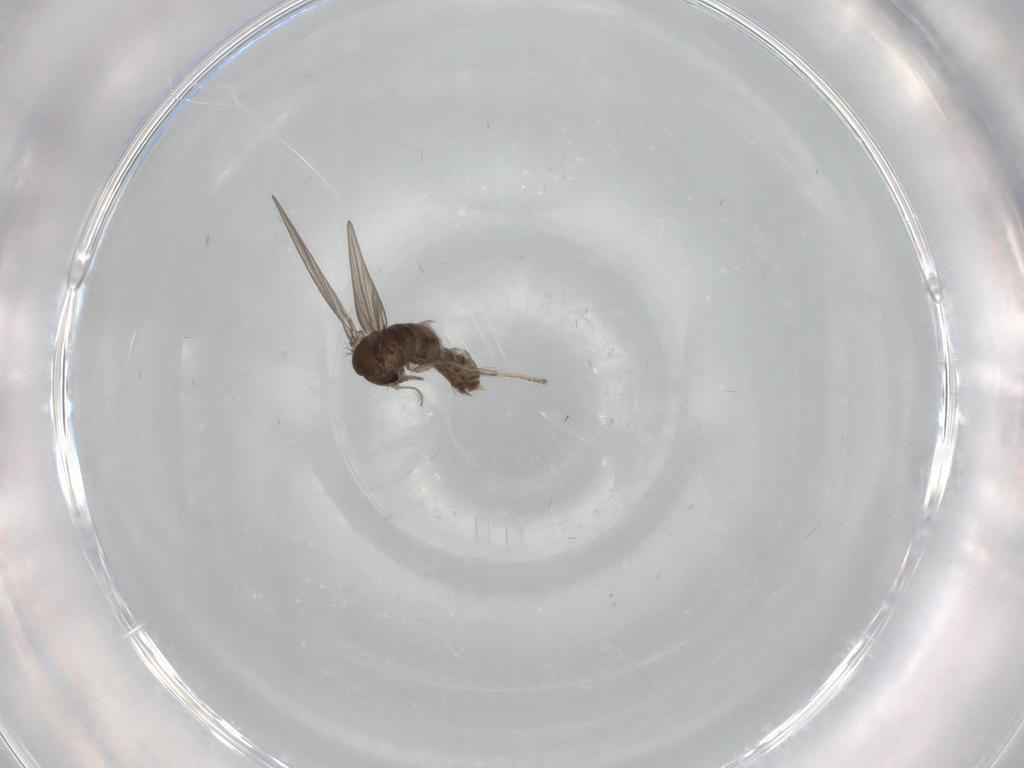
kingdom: Animalia
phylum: Arthropoda
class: Insecta
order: Diptera
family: Psychodidae
